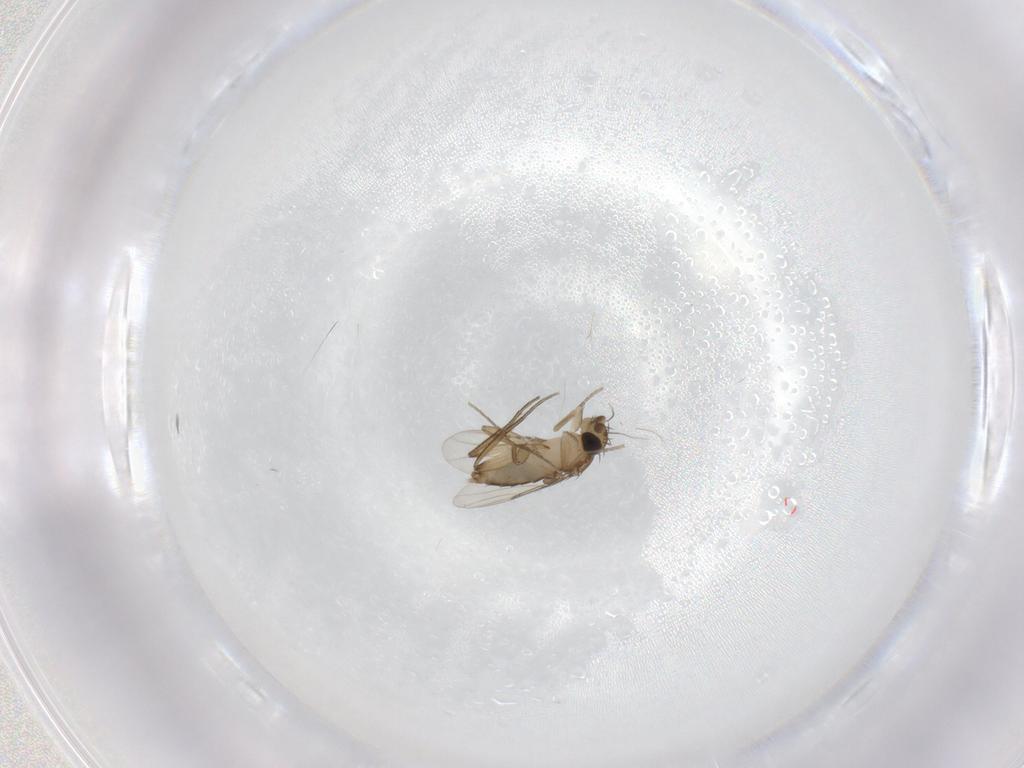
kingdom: Animalia
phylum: Arthropoda
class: Insecta
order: Diptera
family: Phoridae
